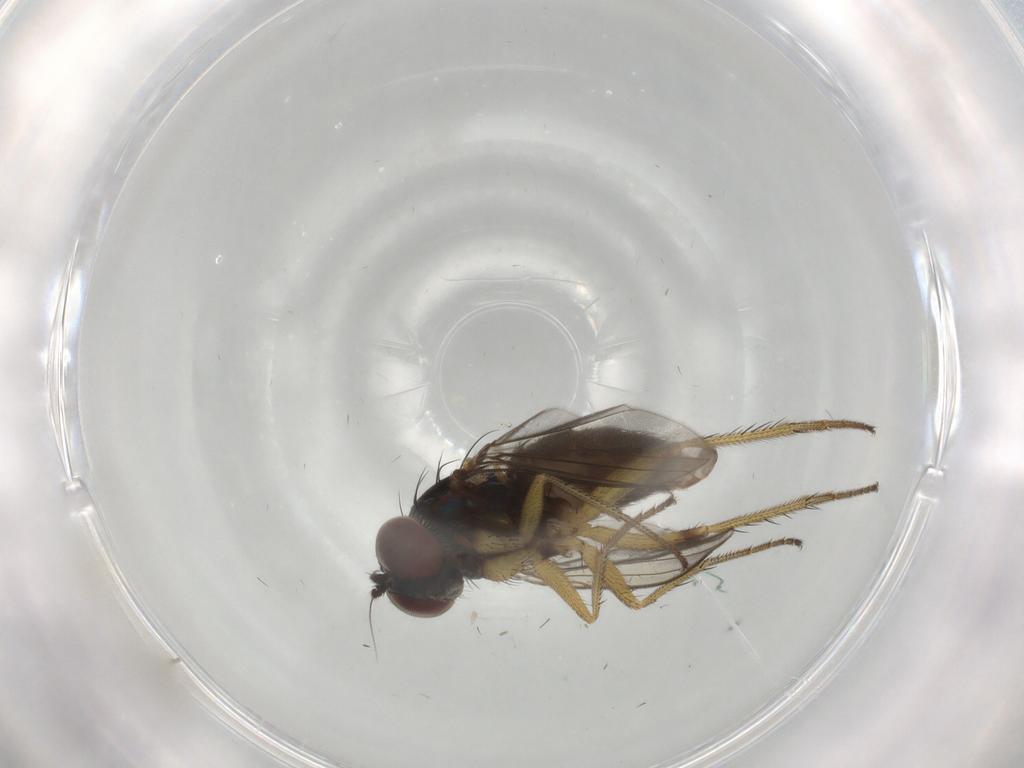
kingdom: Animalia
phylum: Arthropoda
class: Insecta
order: Diptera
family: Dolichopodidae
